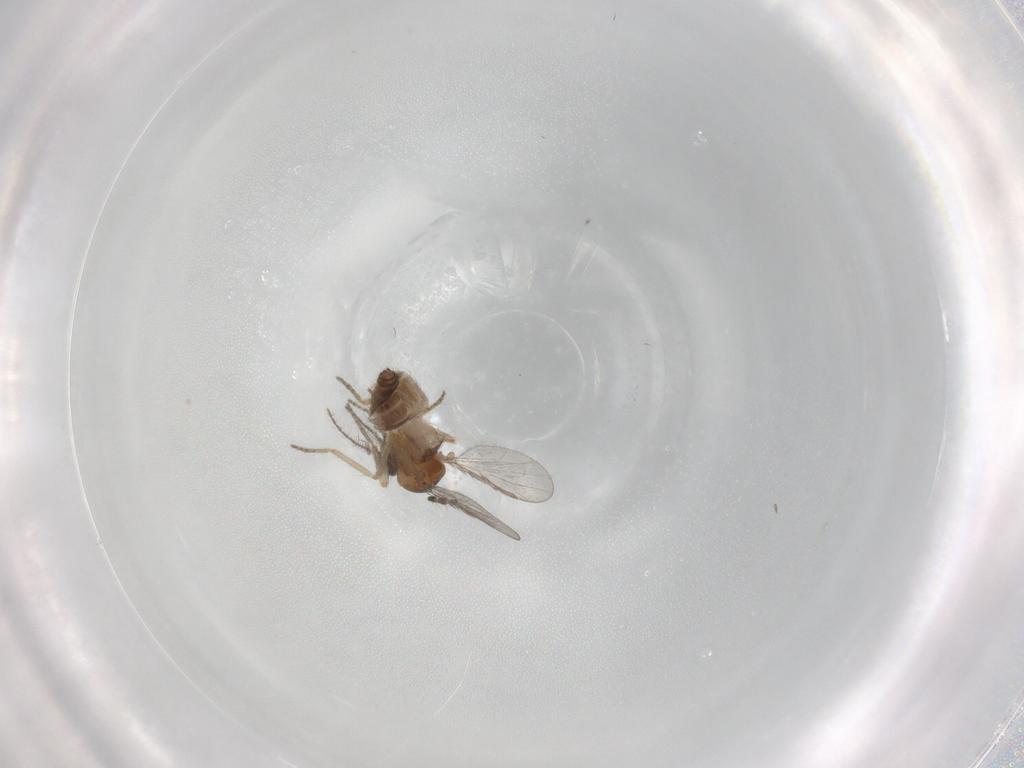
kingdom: Animalia
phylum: Arthropoda
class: Insecta
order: Diptera
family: Ceratopogonidae
